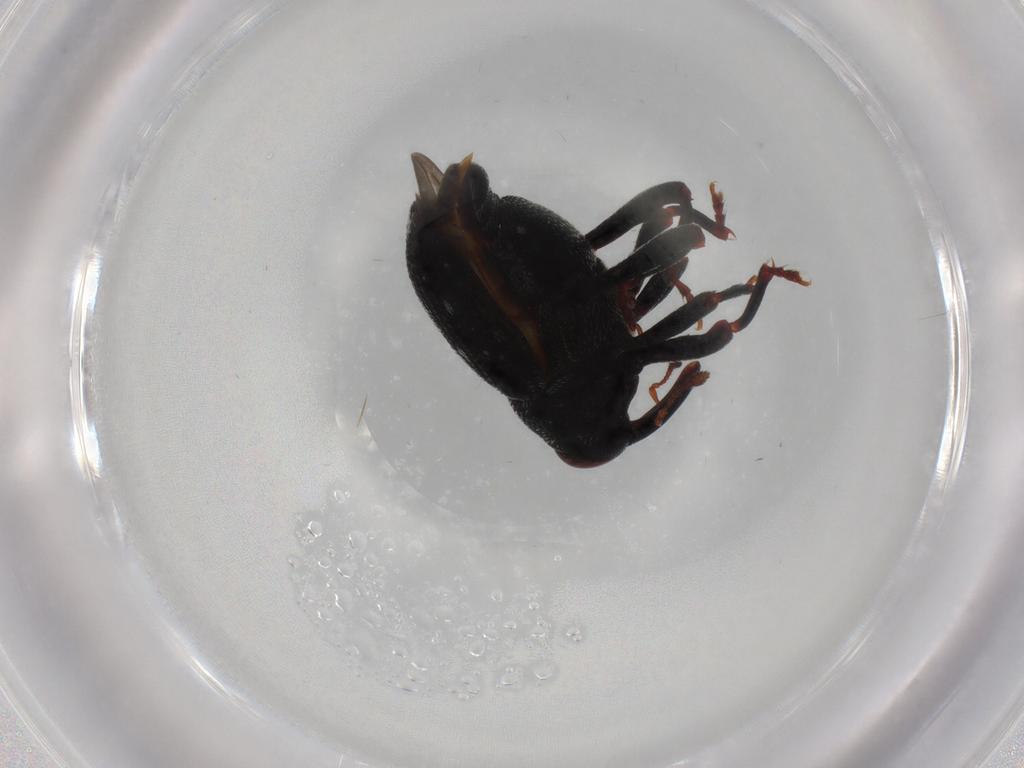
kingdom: Animalia
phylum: Arthropoda
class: Insecta
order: Coleoptera
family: Curculionidae
